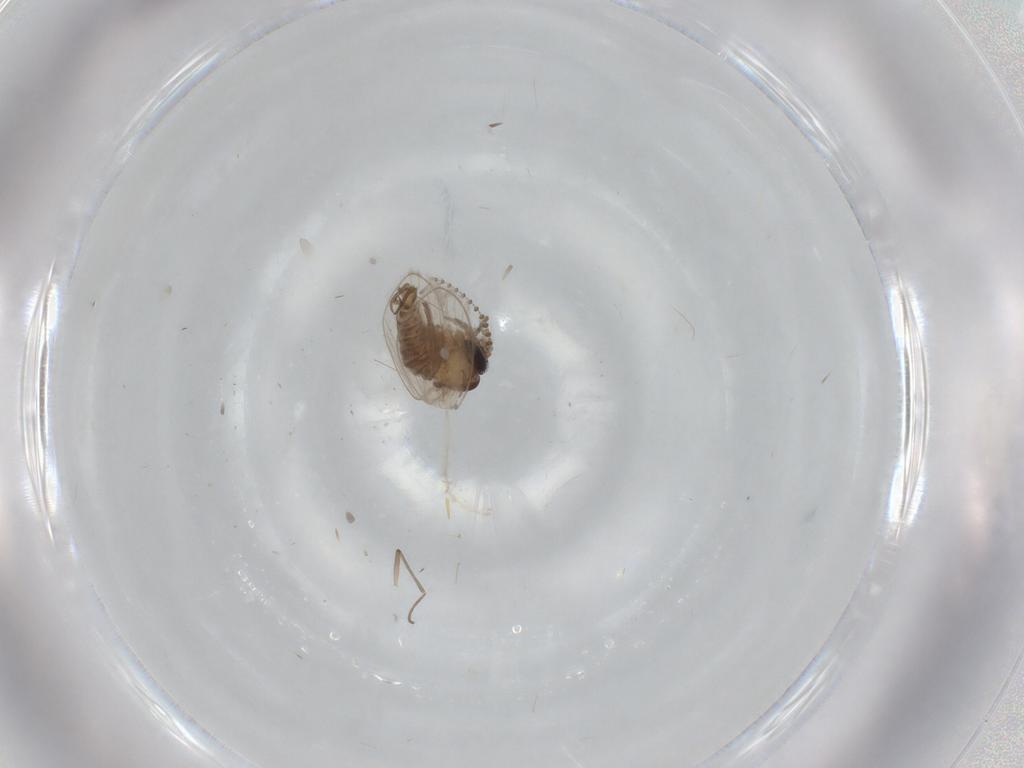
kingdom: Animalia
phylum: Arthropoda
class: Insecta
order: Diptera
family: Psychodidae
